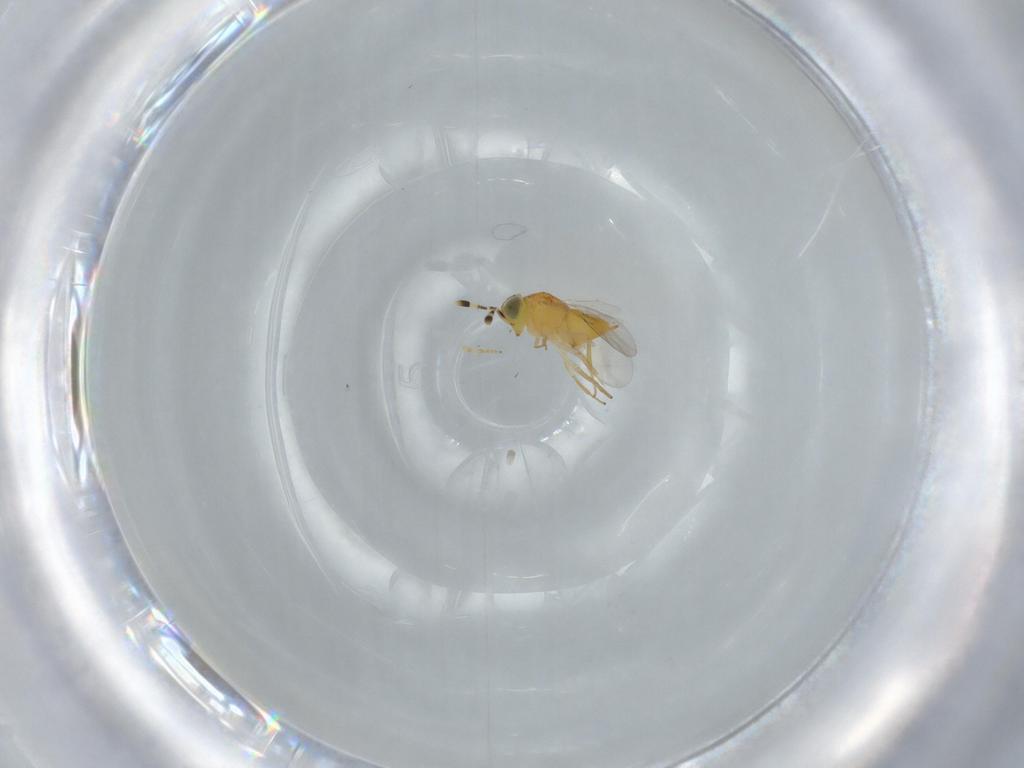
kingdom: Animalia
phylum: Arthropoda
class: Insecta
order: Hymenoptera
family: Encyrtidae
